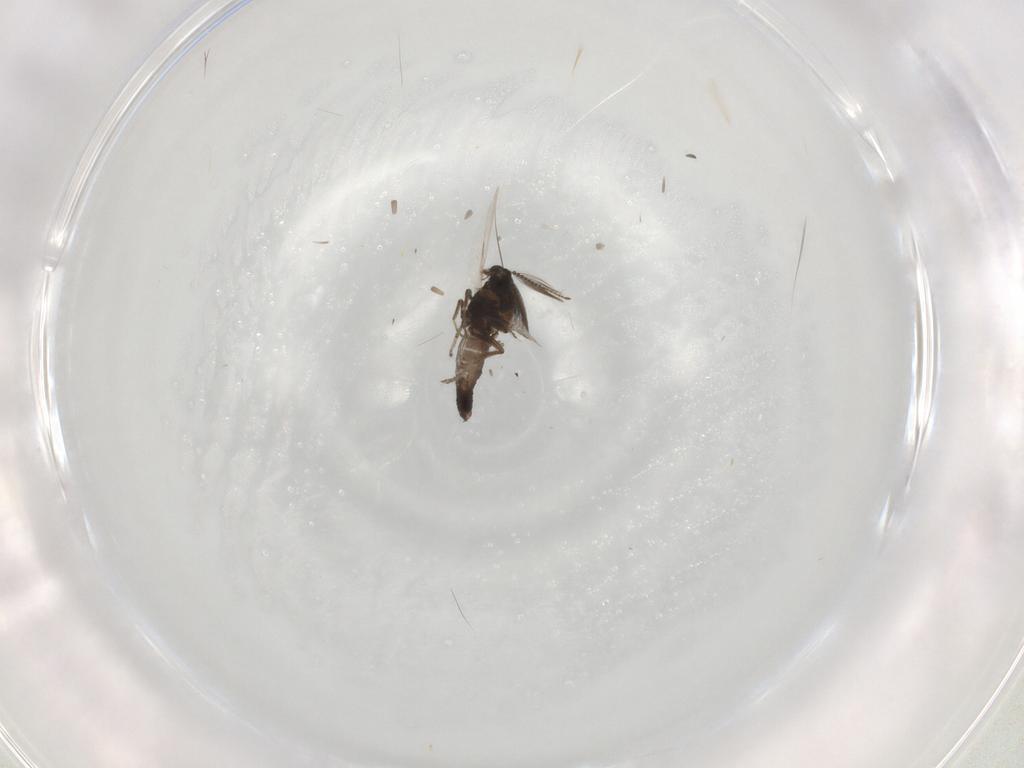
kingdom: Animalia
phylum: Arthropoda
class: Insecta
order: Diptera
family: Ceratopogonidae
